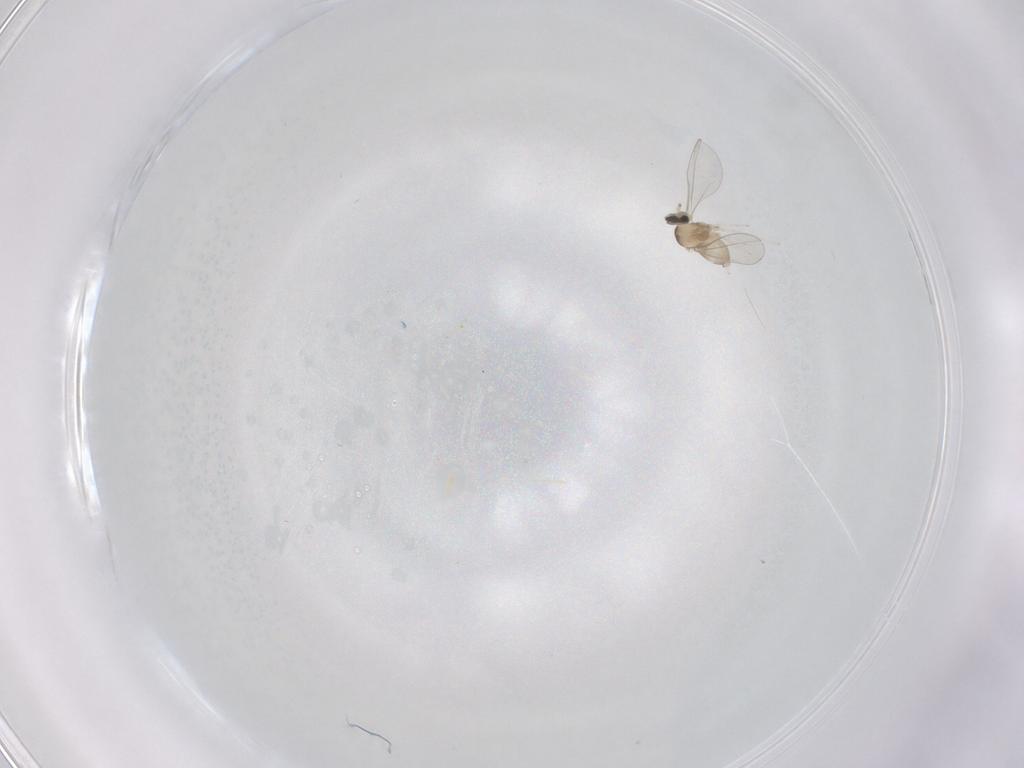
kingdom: Animalia
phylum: Arthropoda
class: Insecta
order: Diptera
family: Cecidomyiidae
